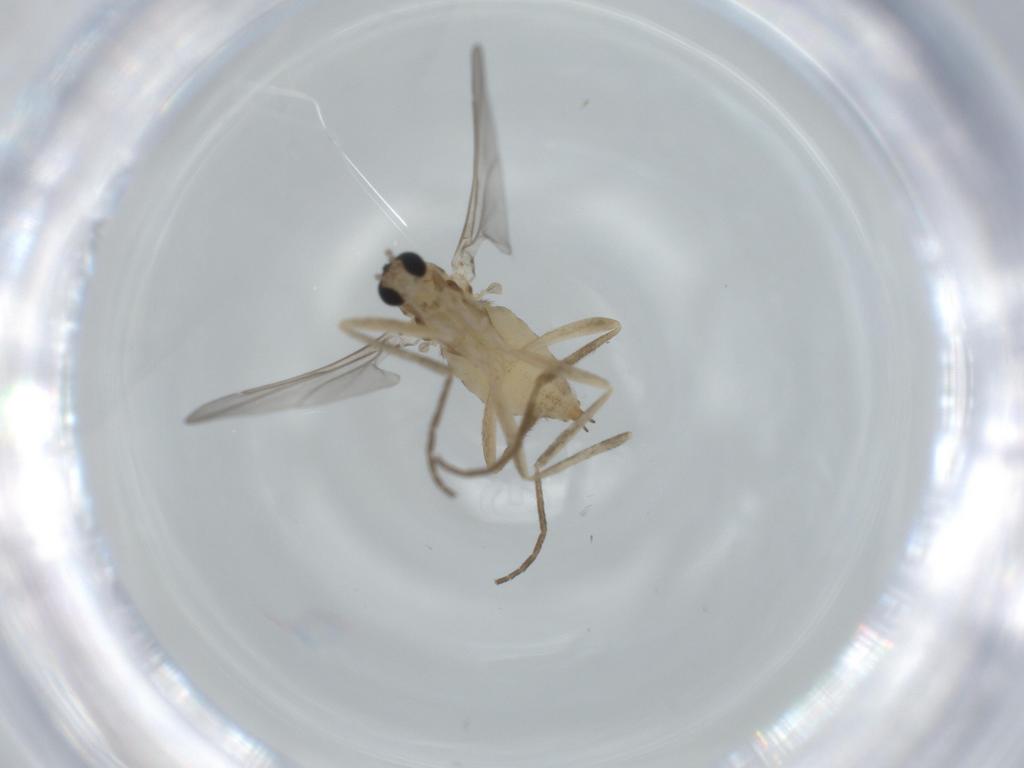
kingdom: Animalia
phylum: Arthropoda
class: Insecta
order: Diptera
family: Cecidomyiidae
